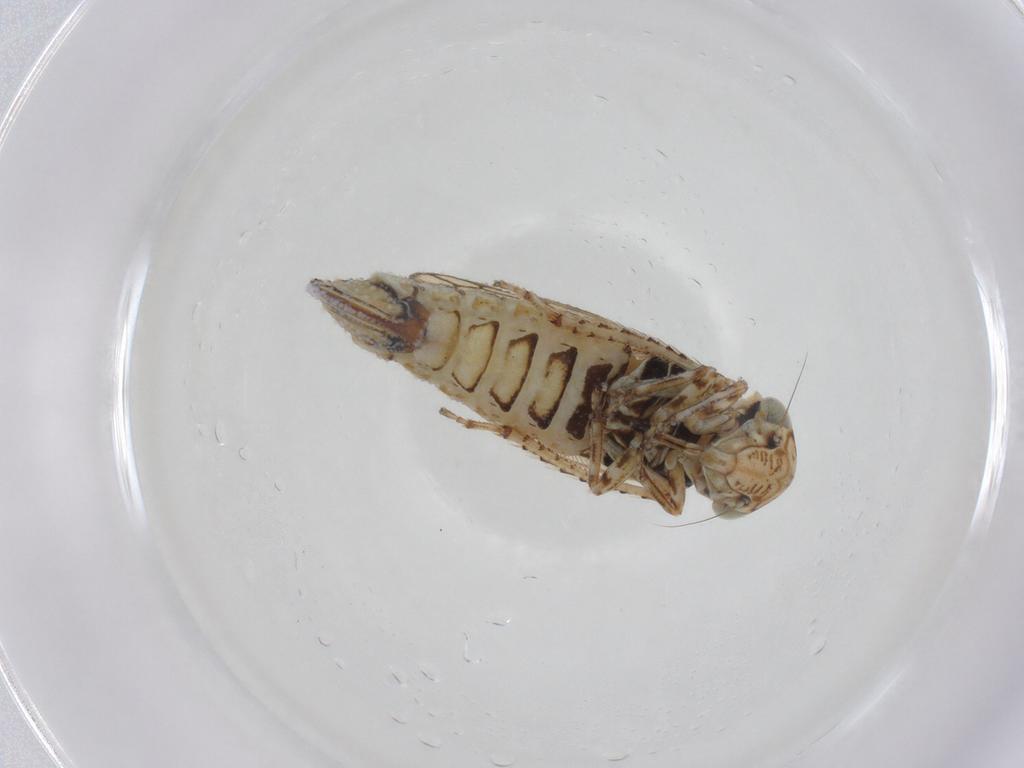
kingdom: Animalia
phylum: Arthropoda
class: Insecta
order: Hemiptera
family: Cicadellidae
